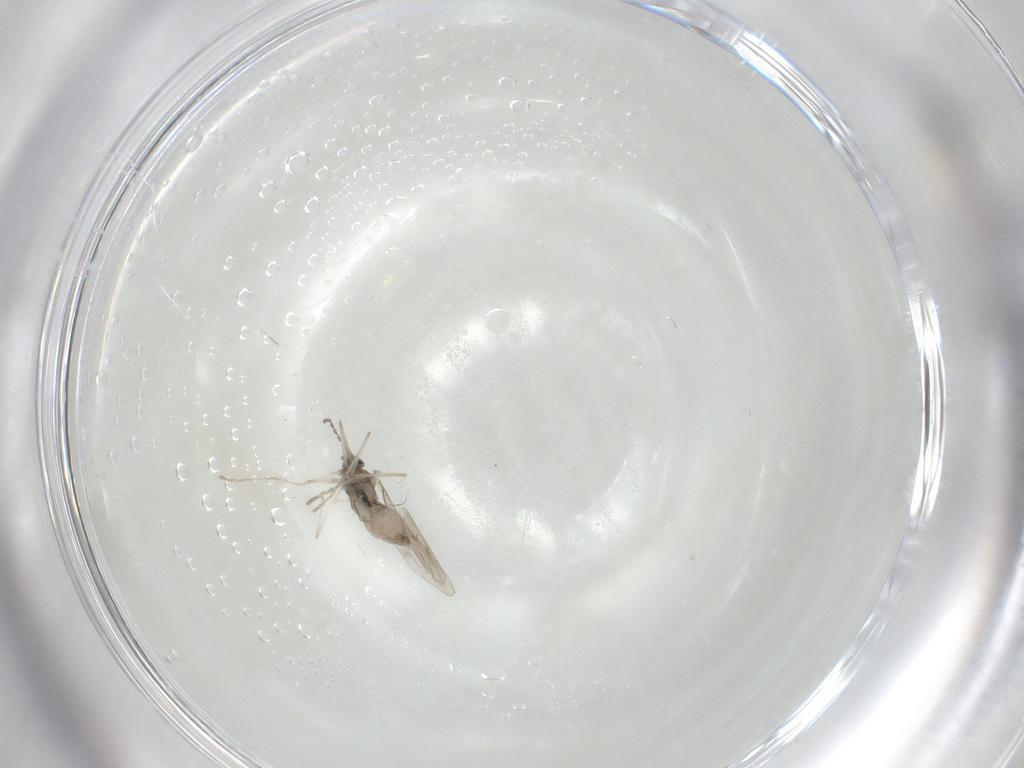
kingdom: Animalia
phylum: Arthropoda
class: Insecta
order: Diptera
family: Cecidomyiidae
